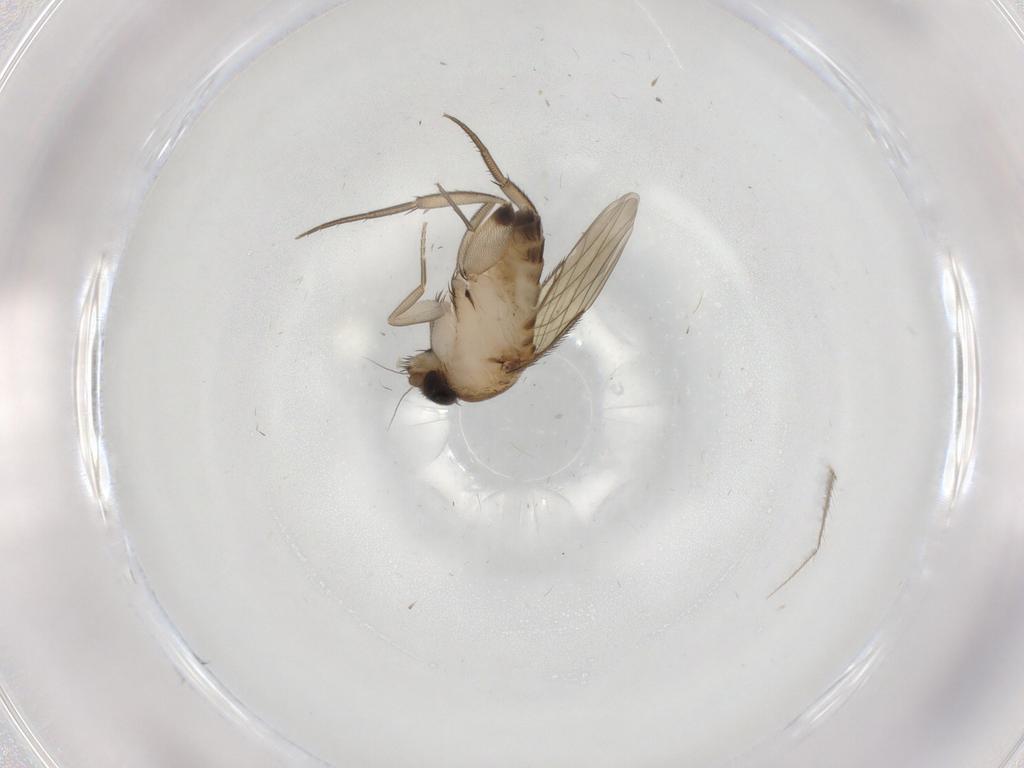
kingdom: Animalia
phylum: Arthropoda
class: Insecta
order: Diptera
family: Phoridae
